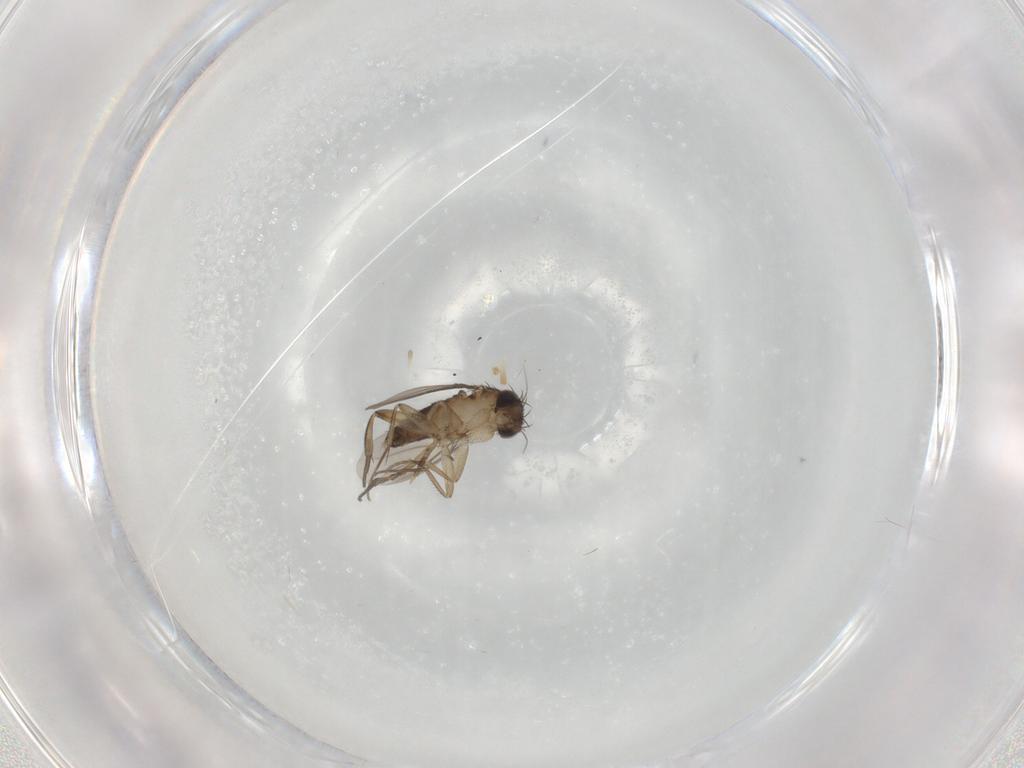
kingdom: Animalia
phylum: Arthropoda
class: Insecta
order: Diptera
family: Phoridae
